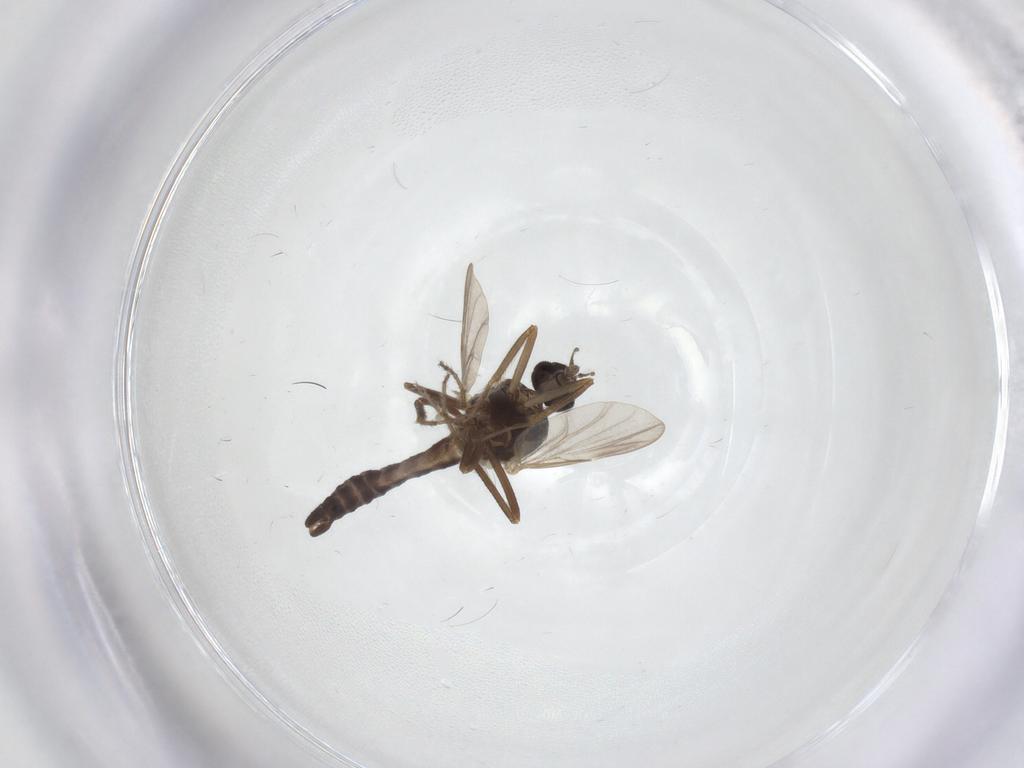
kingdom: Animalia
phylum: Arthropoda
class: Insecta
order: Diptera
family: Ceratopogonidae
